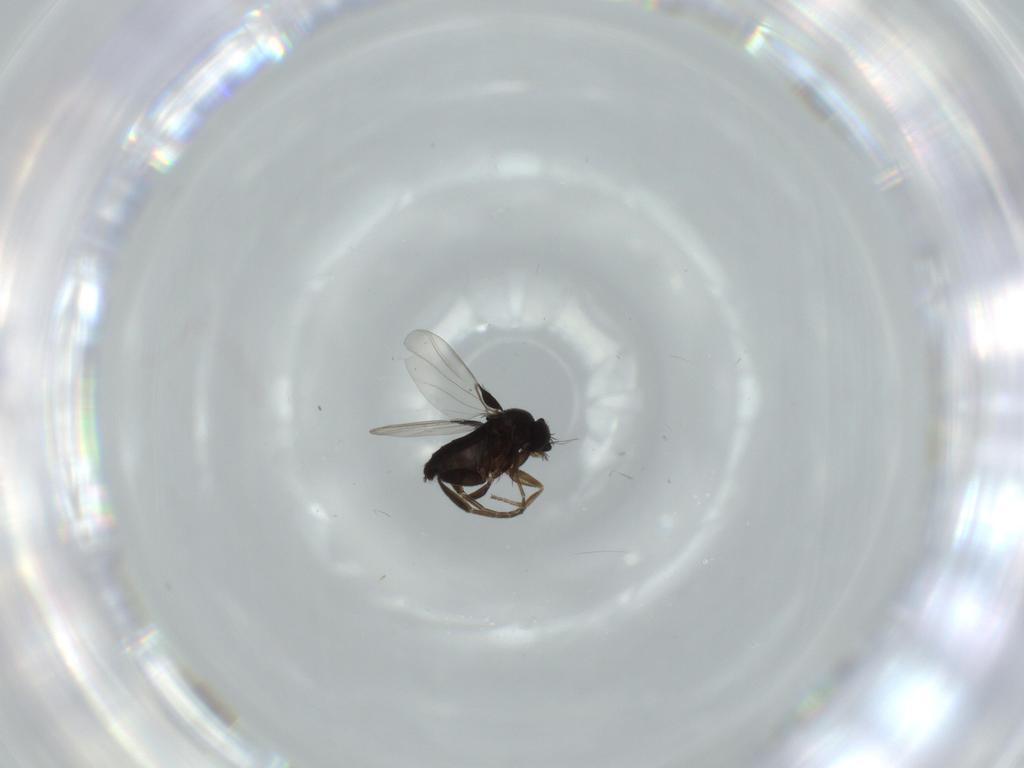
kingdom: Animalia
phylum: Arthropoda
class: Insecta
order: Diptera
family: Phoridae
